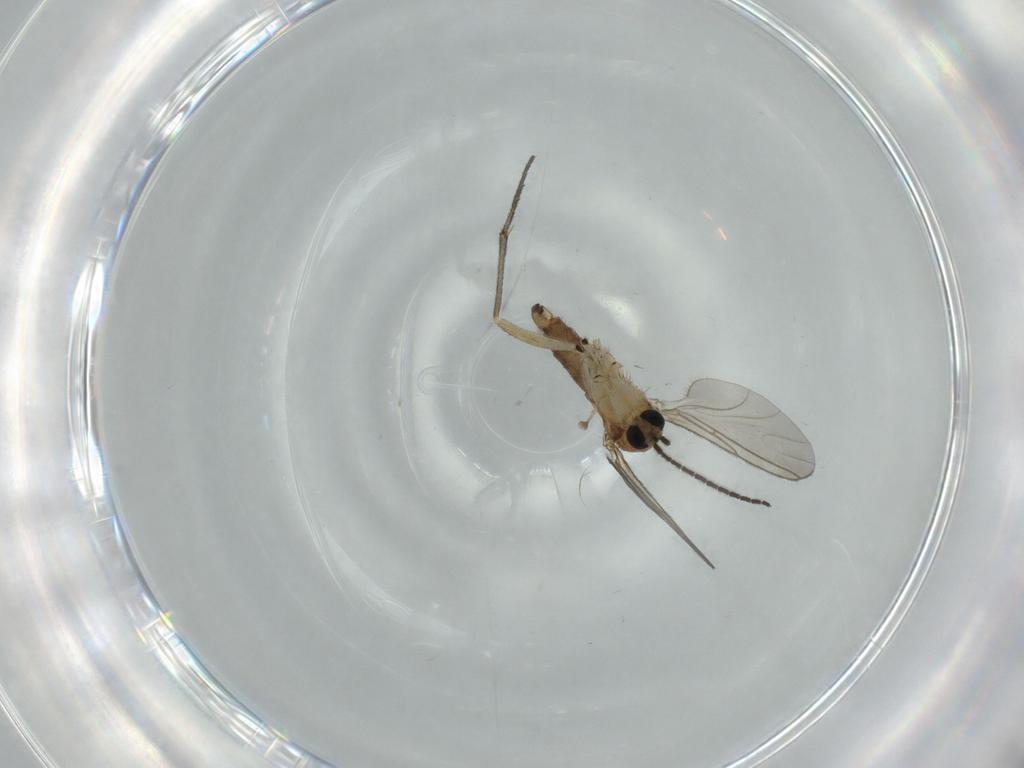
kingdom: Animalia
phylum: Arthropoda
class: Insecta
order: Diptera
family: Sciaridae
